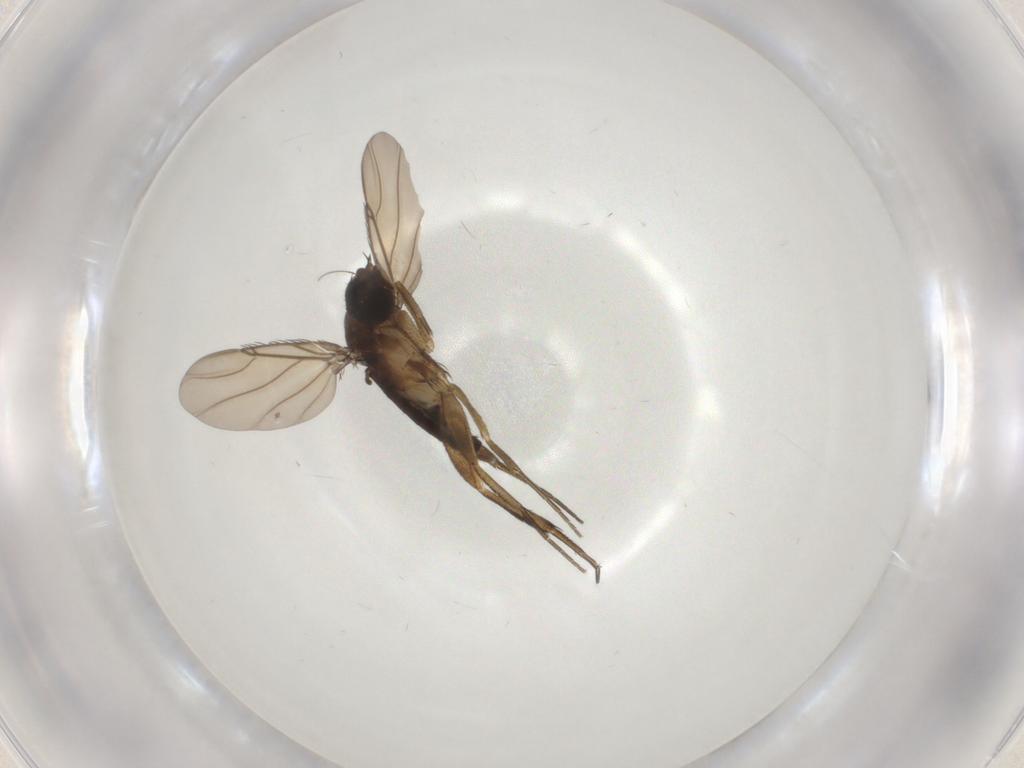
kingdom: Animalia
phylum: Arthropoda
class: Insecta
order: Diptera
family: Phoridae
